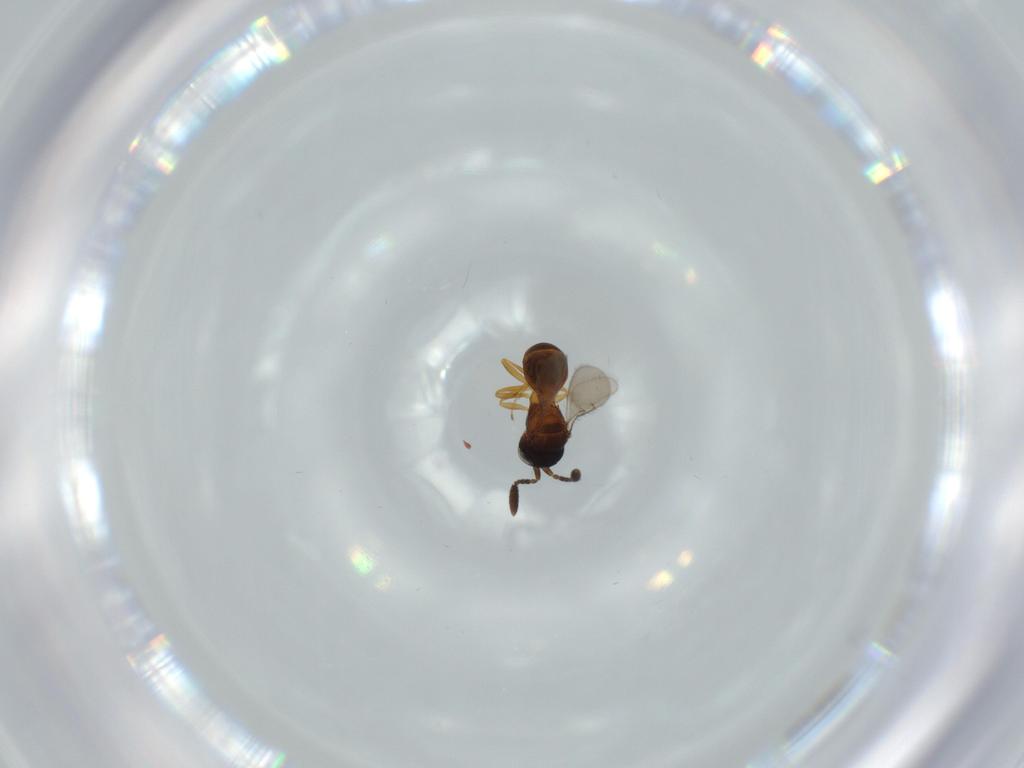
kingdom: Animalia
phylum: Arthropoda
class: Insecta
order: Hymenoptera
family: Scelionidae
